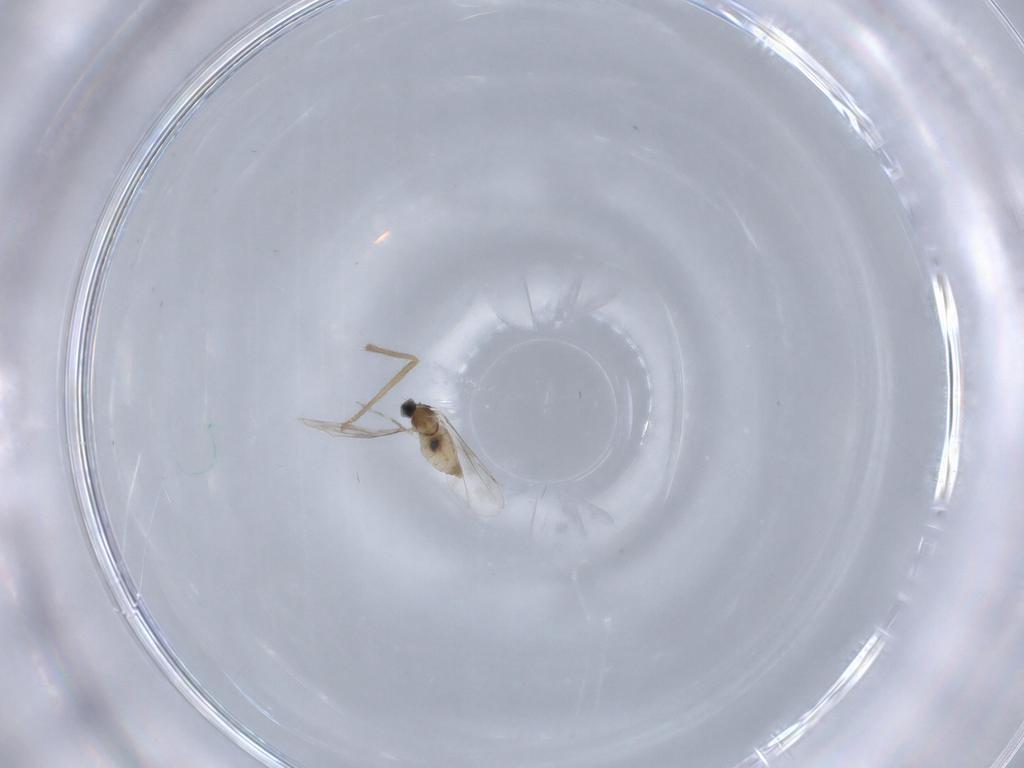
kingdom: Animalia
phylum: Arthropoda
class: Insecta
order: Diptera
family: Cecidomyiidae
